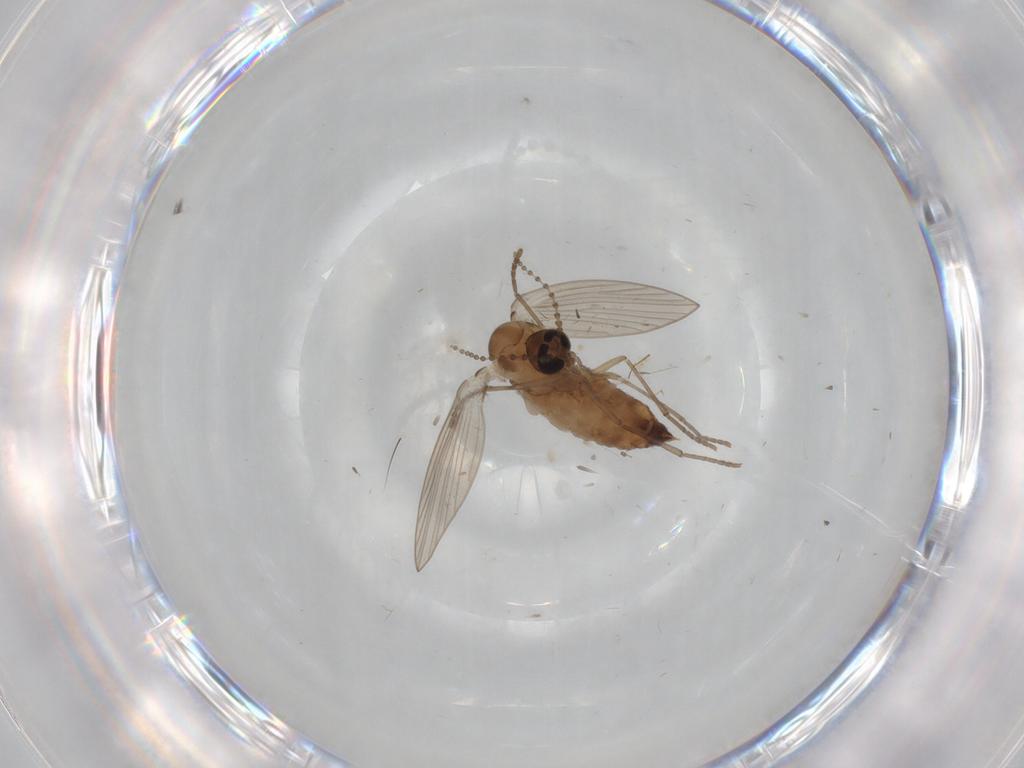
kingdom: Animalia
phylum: Arthropoda
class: Insecta
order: Diptera
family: Psychodidae
